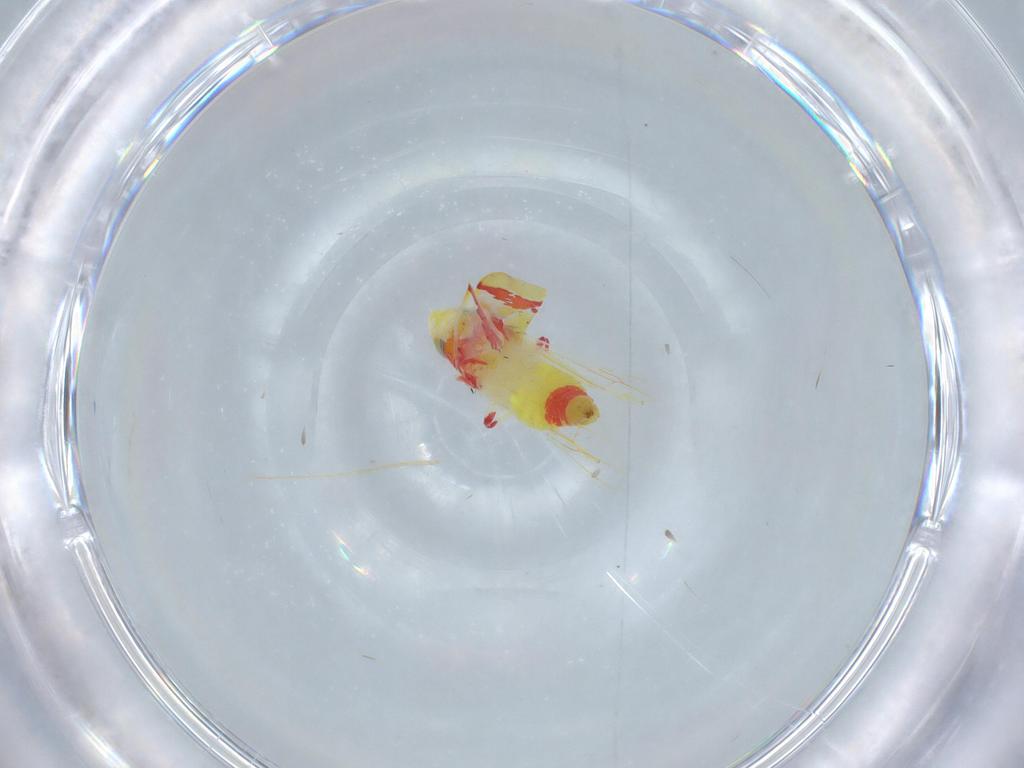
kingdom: Animalia
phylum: Arthropoda
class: Insecta
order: Hemiptera
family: Cicadellidae
